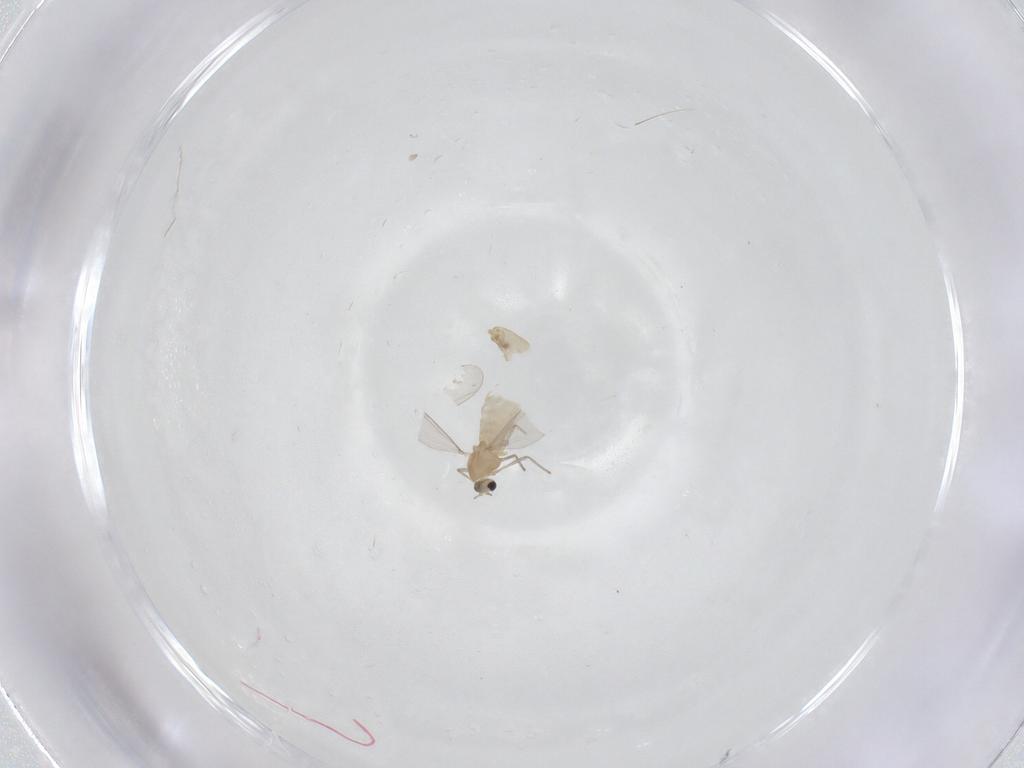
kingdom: Animalia
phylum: Arthropoda
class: Insecta
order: Diptera
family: Chironomidae
